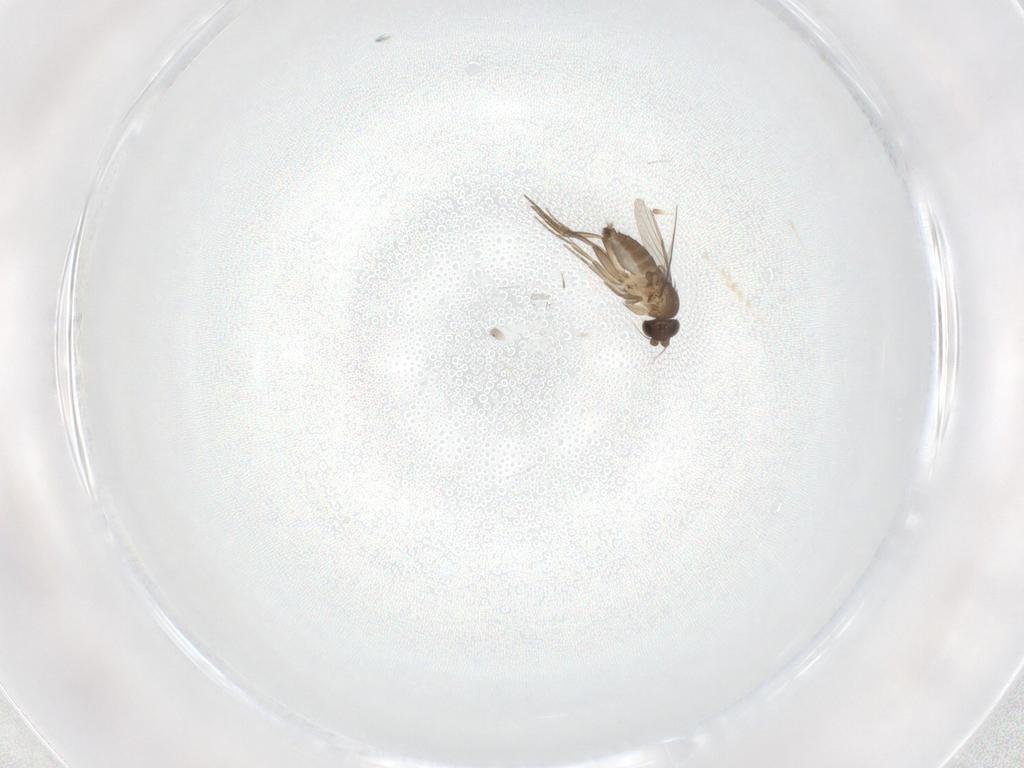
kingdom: Animalia
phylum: Arthropoda
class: Insecta
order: Diptera
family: Phoridae
